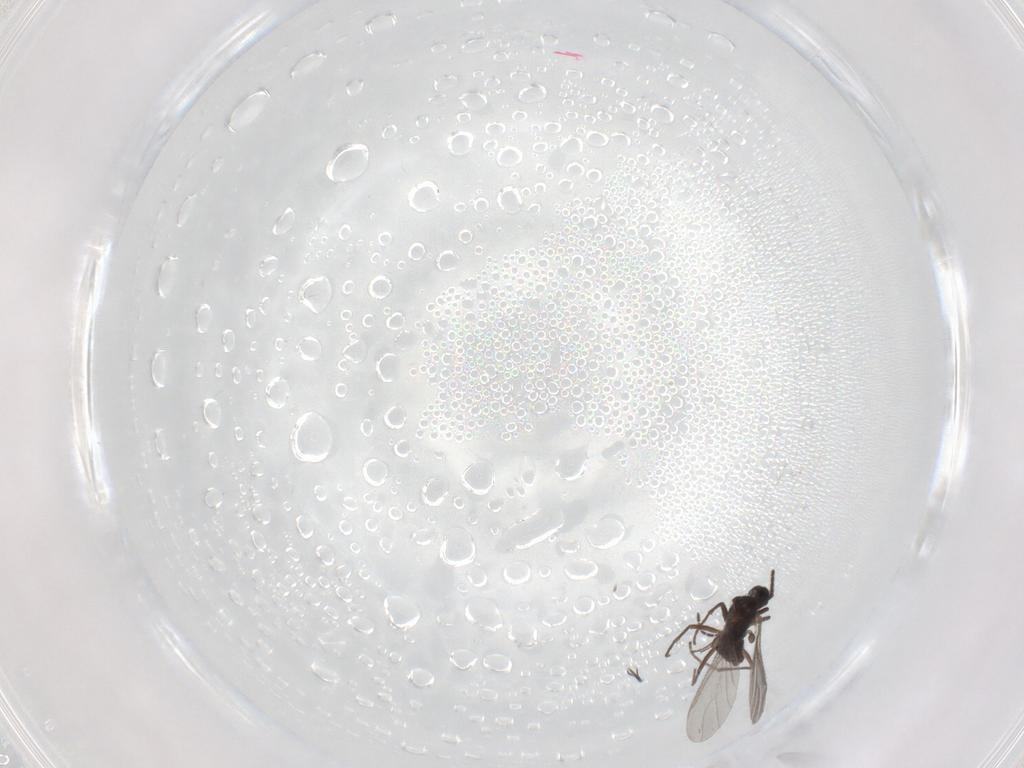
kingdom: Animalia
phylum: Arthropoda
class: Insecta
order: Diptera
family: Sciaridae
